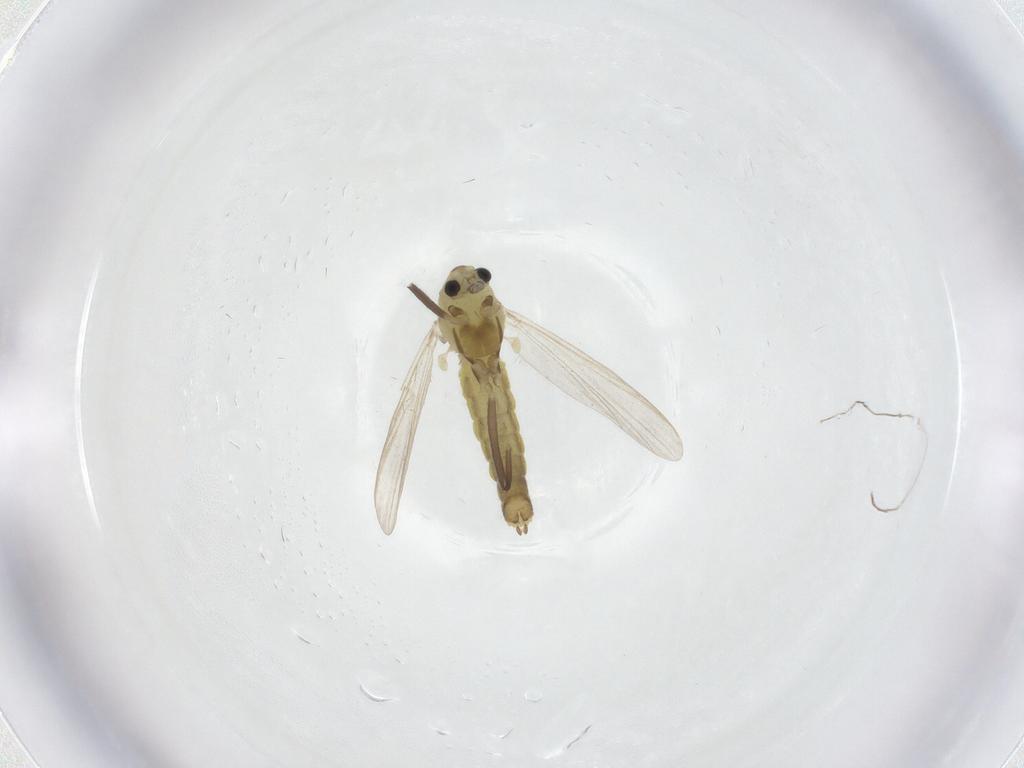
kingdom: Animalia
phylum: Arthropoda
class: Insecta
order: Diptera
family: Chironomidae
